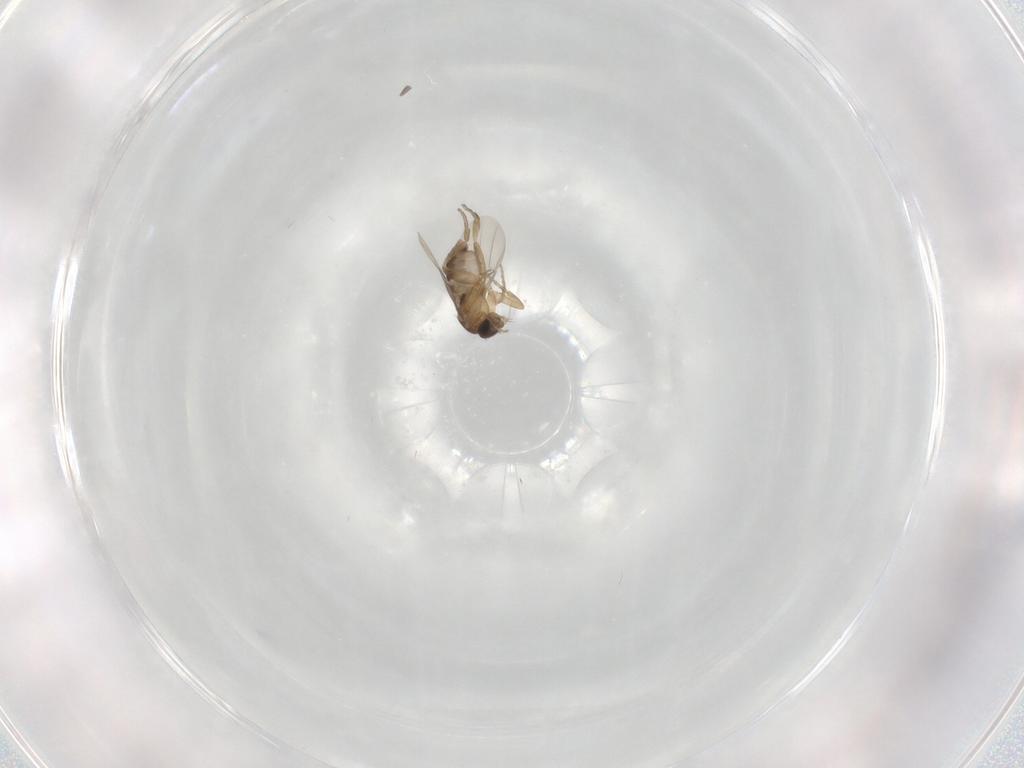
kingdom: Animalia
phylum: Arthropoda
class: Insecta
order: Diptera
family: Phoridae
